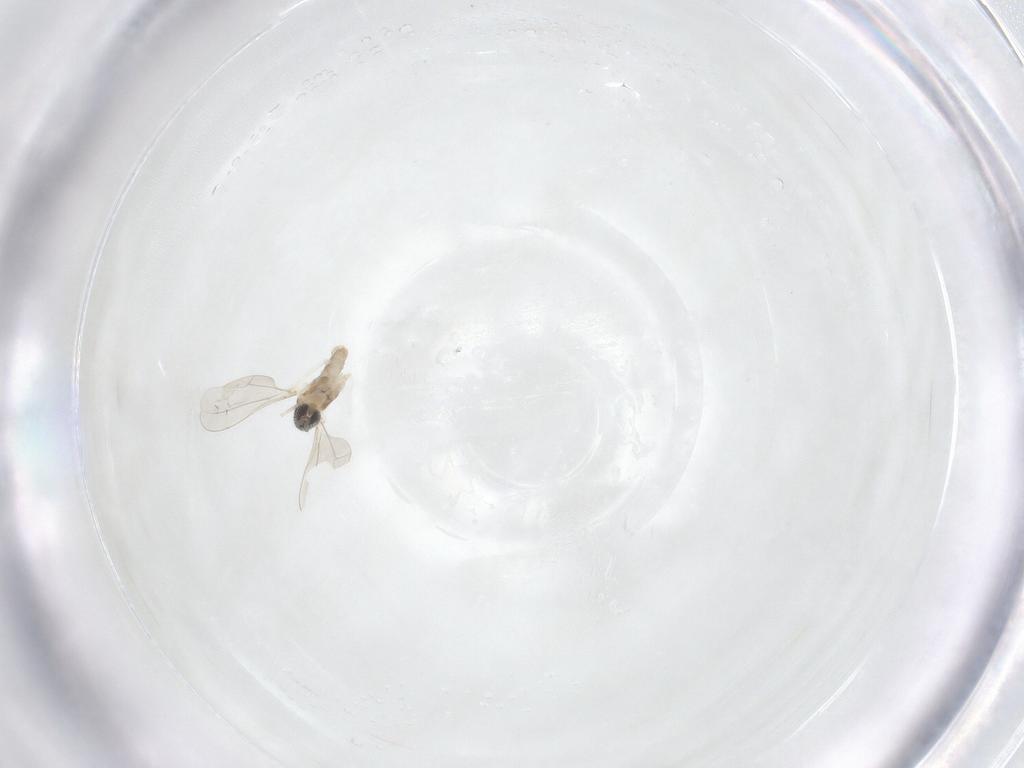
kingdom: Animalia
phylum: Arthropoda
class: Insecta
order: Diptera
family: Cecidomyiidae
